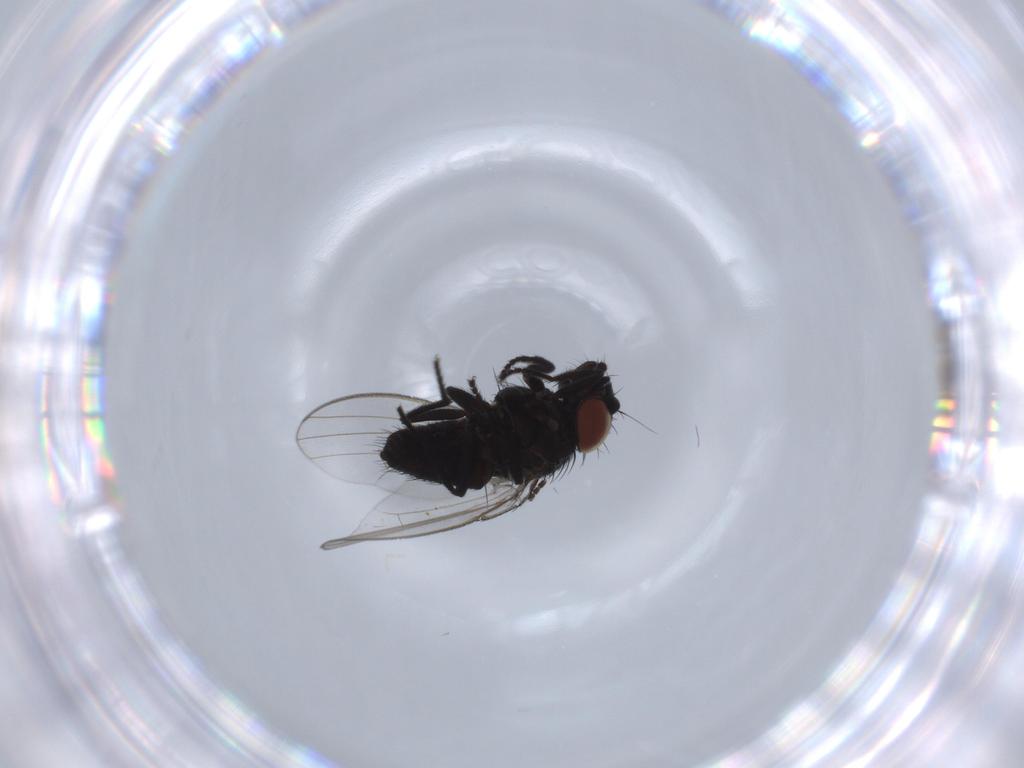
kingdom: Animalia
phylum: Arthropoda
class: Insecta
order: Diptera
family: Milichiidae
